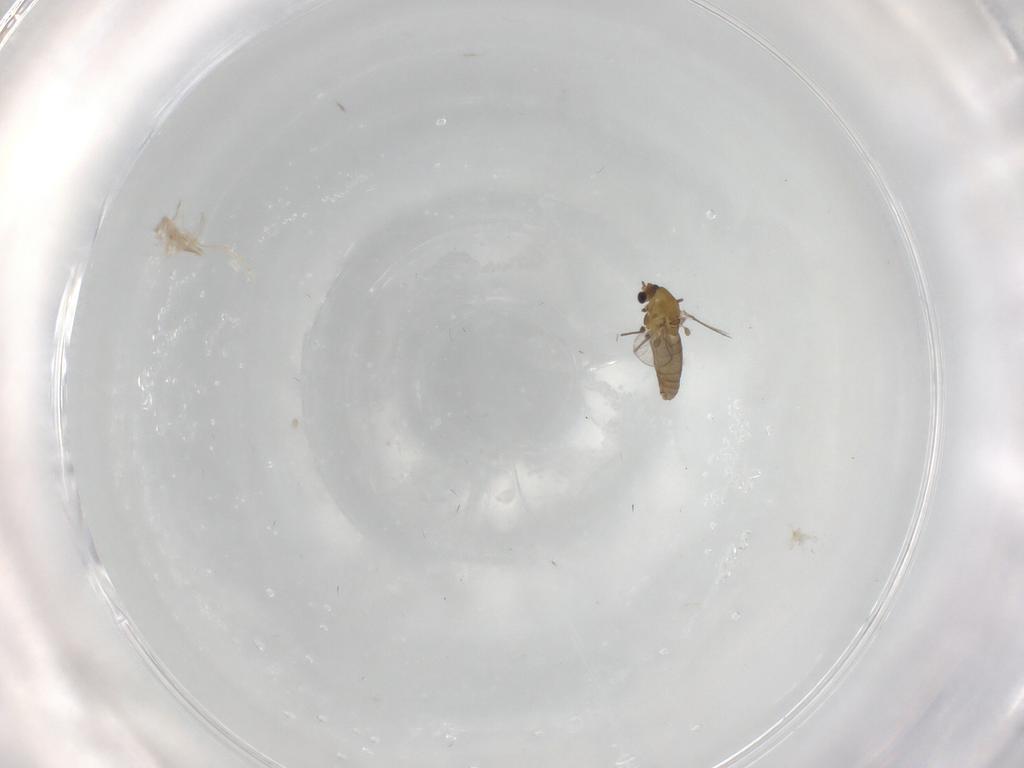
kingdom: Animalia
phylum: Arthropoda
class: Insecta
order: Diptera
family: Chironomidae
